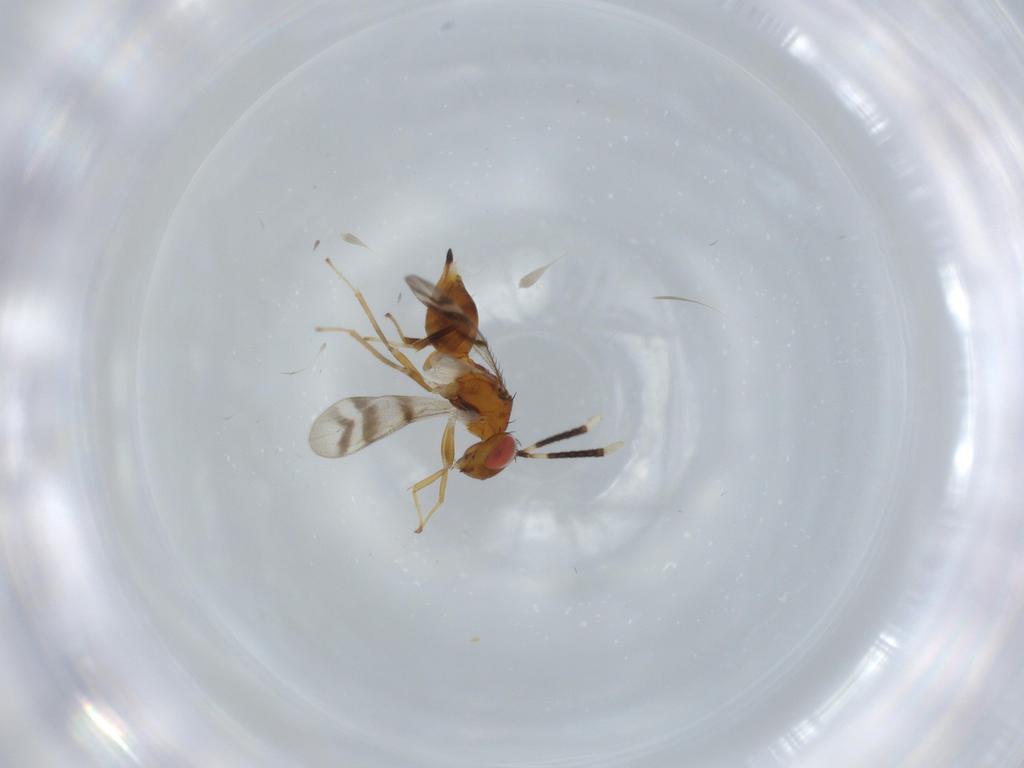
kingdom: Animalia
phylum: Arthropoda
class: Insecta
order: Hymenoptera
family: Diparidae
